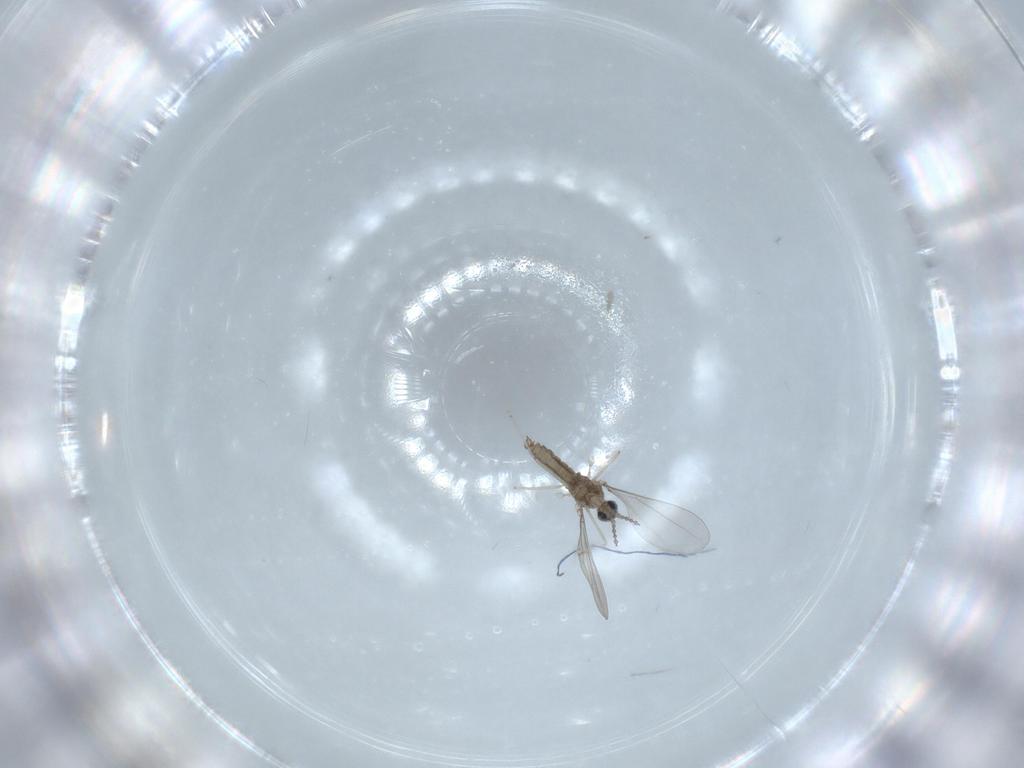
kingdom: Animalia
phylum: Arthropoda
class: Insecta
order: Diptera
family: Sciaridae
